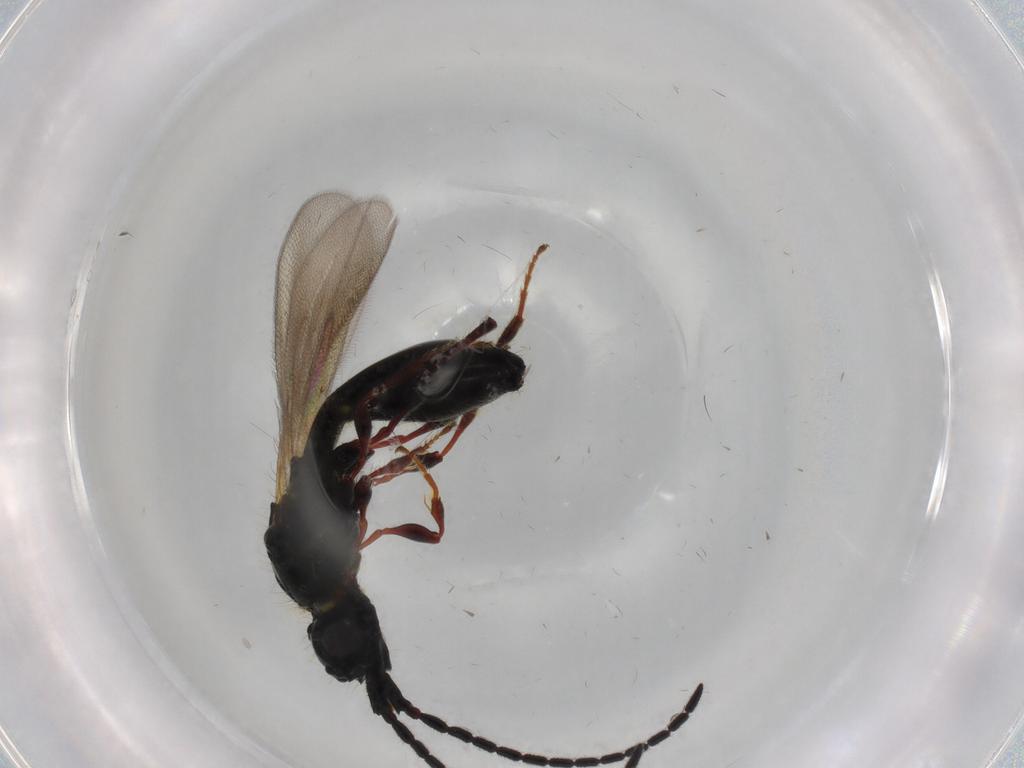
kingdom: Animalia
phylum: Arthropoda
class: Insecta
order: Hymenoptera
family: Diapriidae
